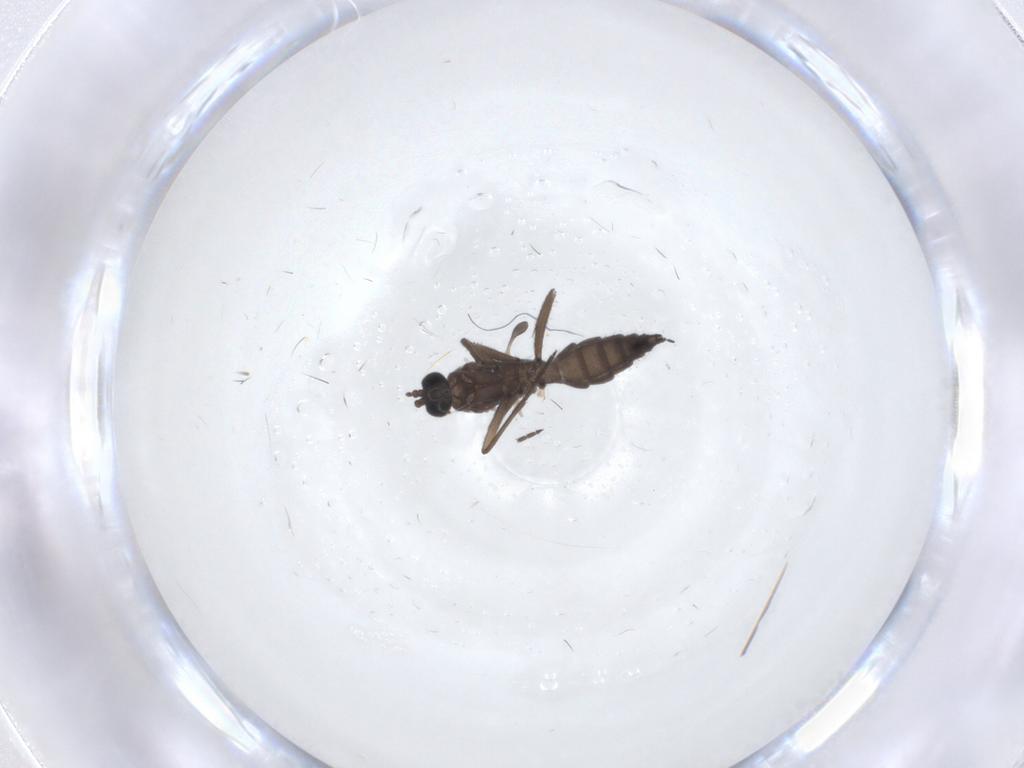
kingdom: Animalia
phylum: Arthropoda
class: Insecta
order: Diptera
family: Sciaridae
